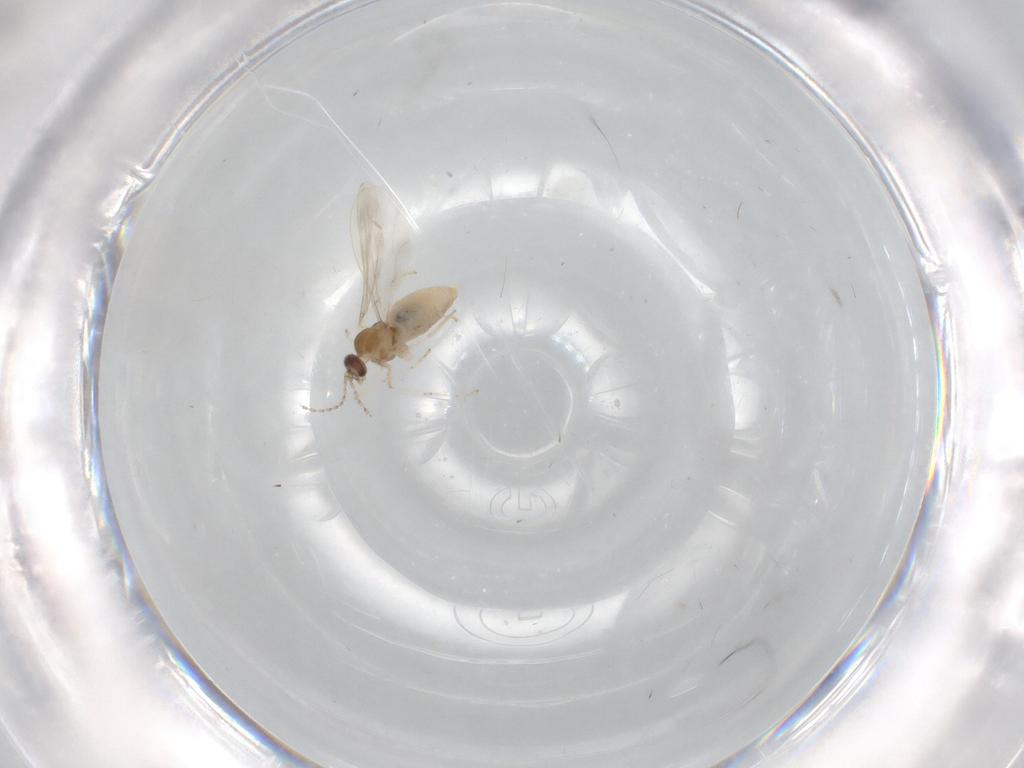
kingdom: Animalia
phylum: Arthropoda
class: Insecta
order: Diptera
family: Cecidomyiidae
